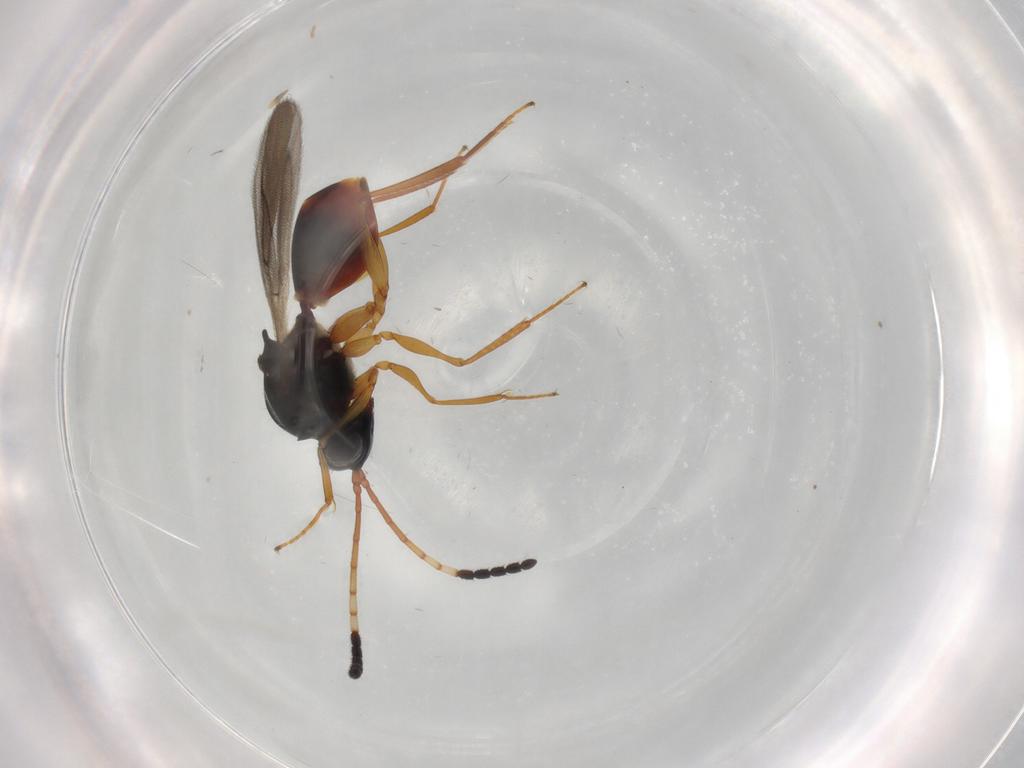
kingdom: Animalia
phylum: Arthropoda
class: Insecta
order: Hymenoptera
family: Figitidae
